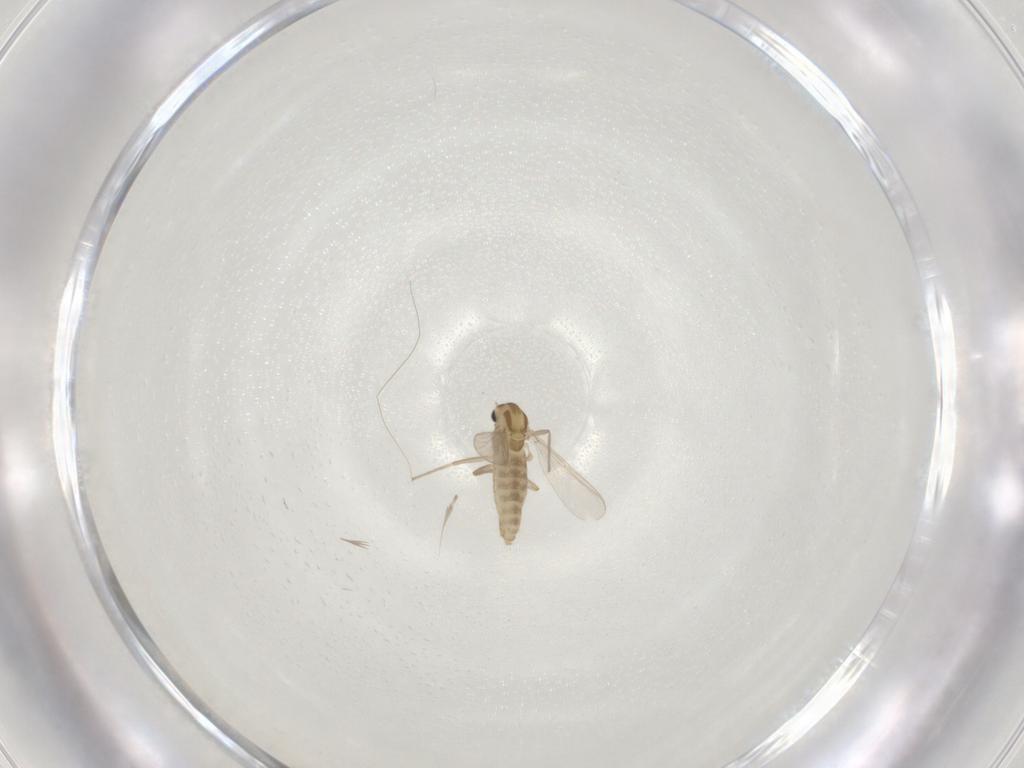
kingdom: Animalia
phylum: Arthropoda
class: Insecta
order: Diptera
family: Chironomidae
